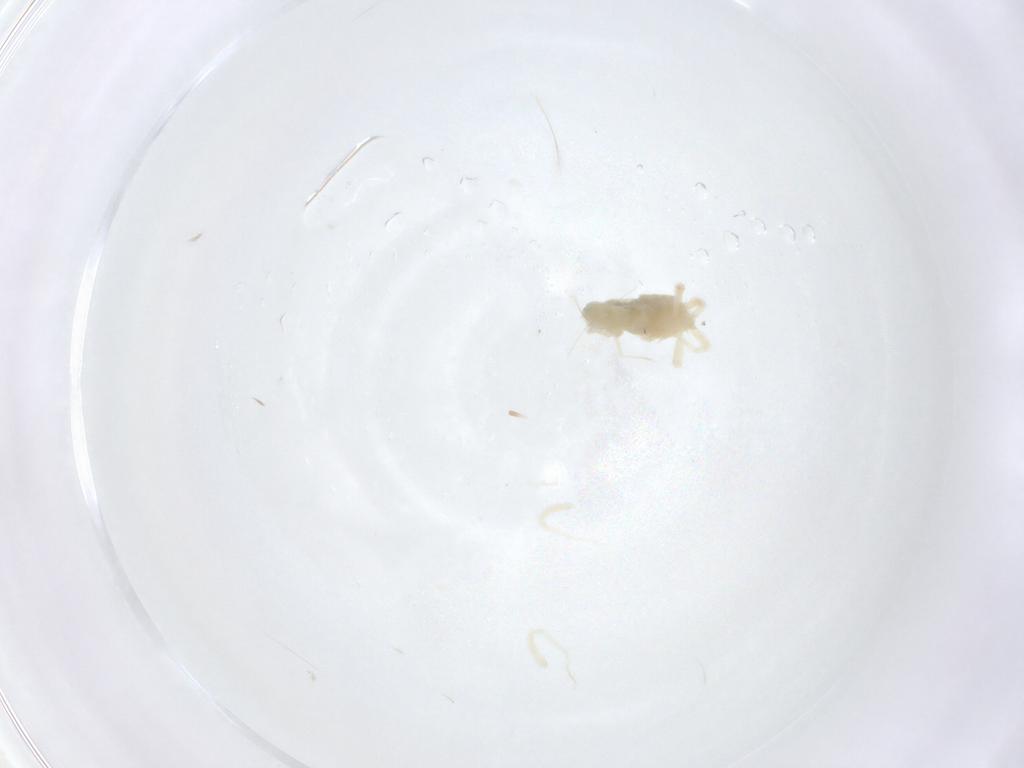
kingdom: Animalia
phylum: Arthropoda
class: Arachnida
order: Trombidiformes
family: Anystidae
